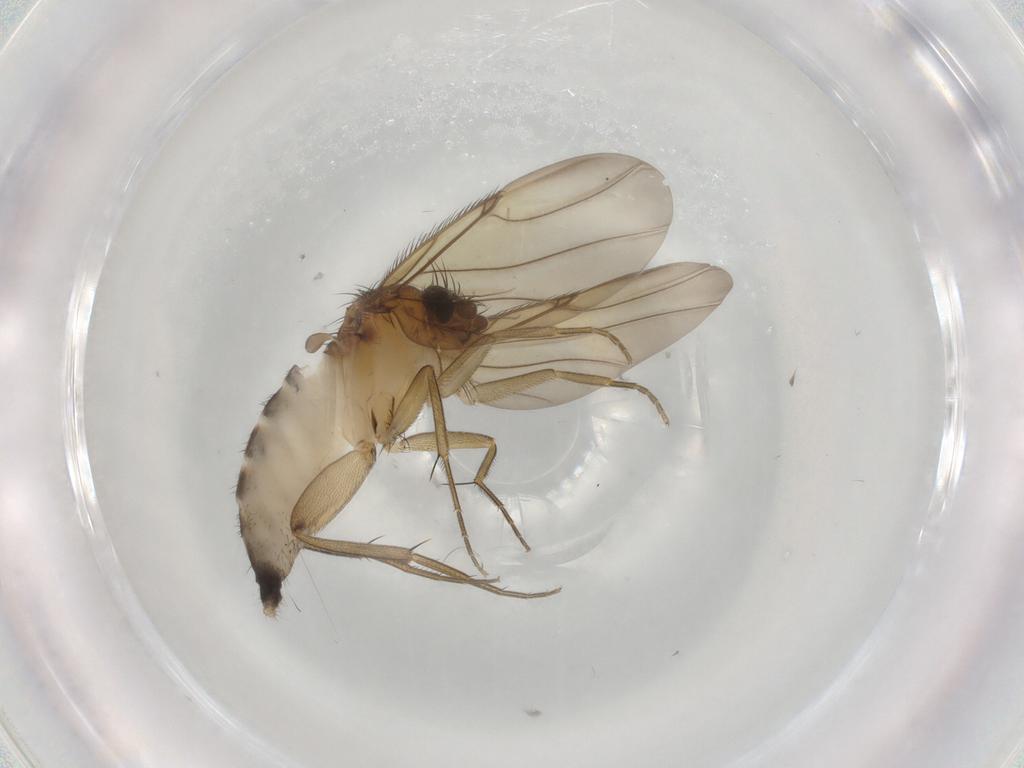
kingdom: Animalia
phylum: Arthropoda
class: Insecta
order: Diptera
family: Phoridae
